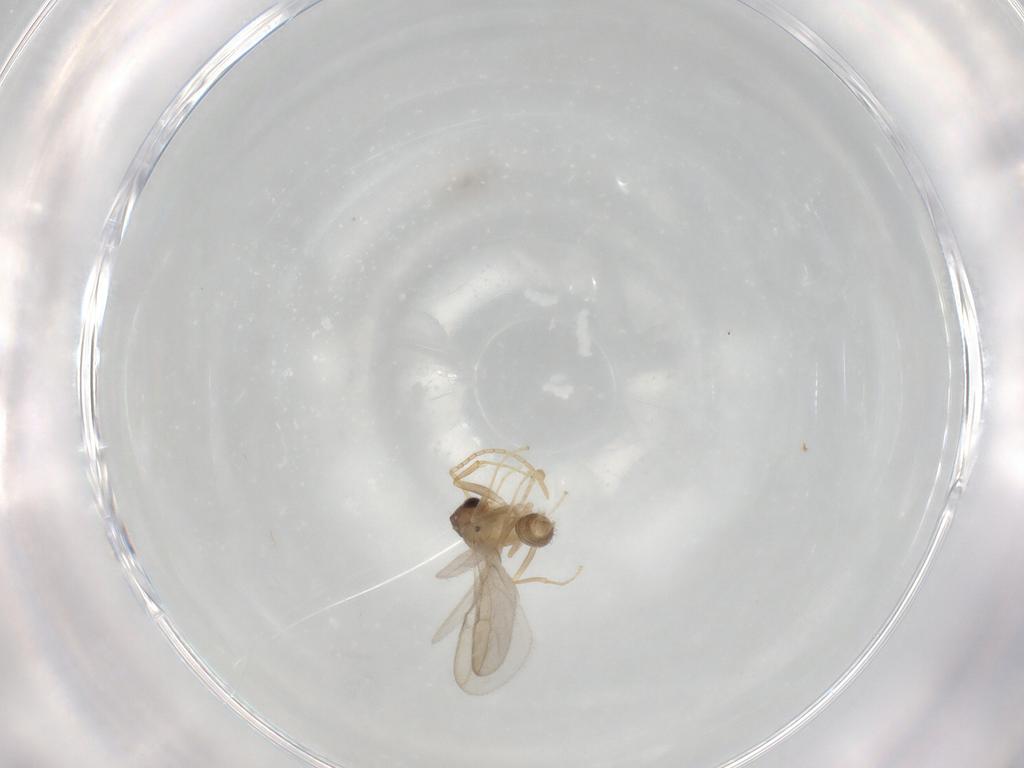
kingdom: Animalia
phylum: Arthropoda
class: Insecta
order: Hymenoptera
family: Formicidae
